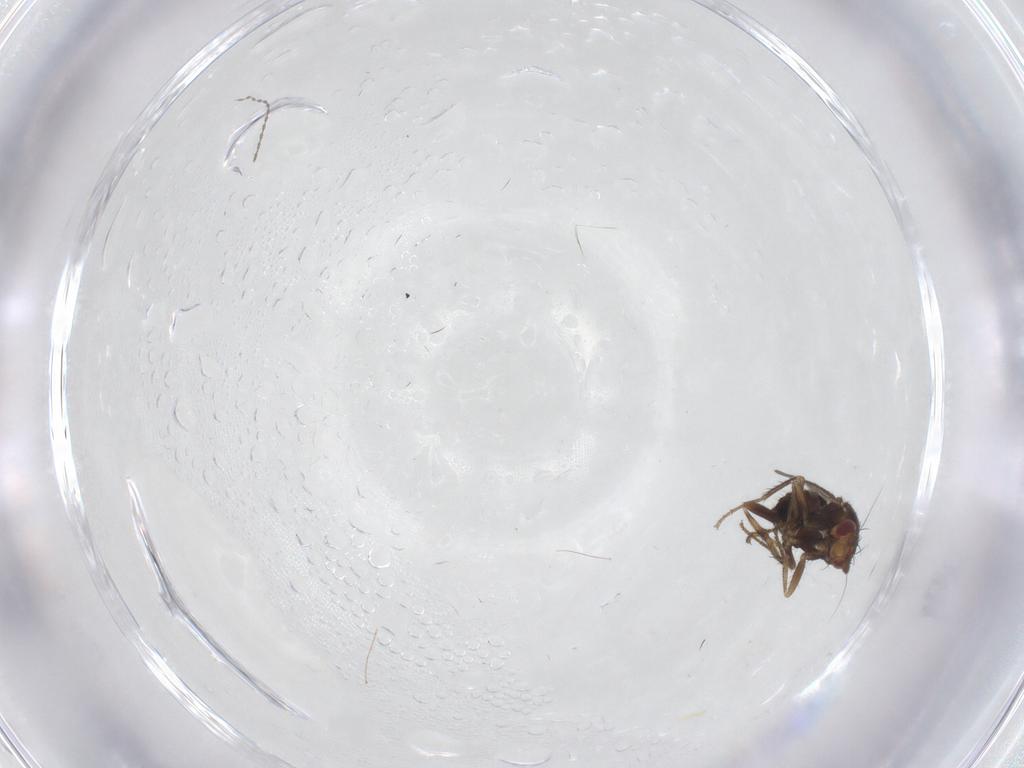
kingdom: Animalia
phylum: Arthropoda
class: Insecta
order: Diptera
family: Sphaeroceridae
